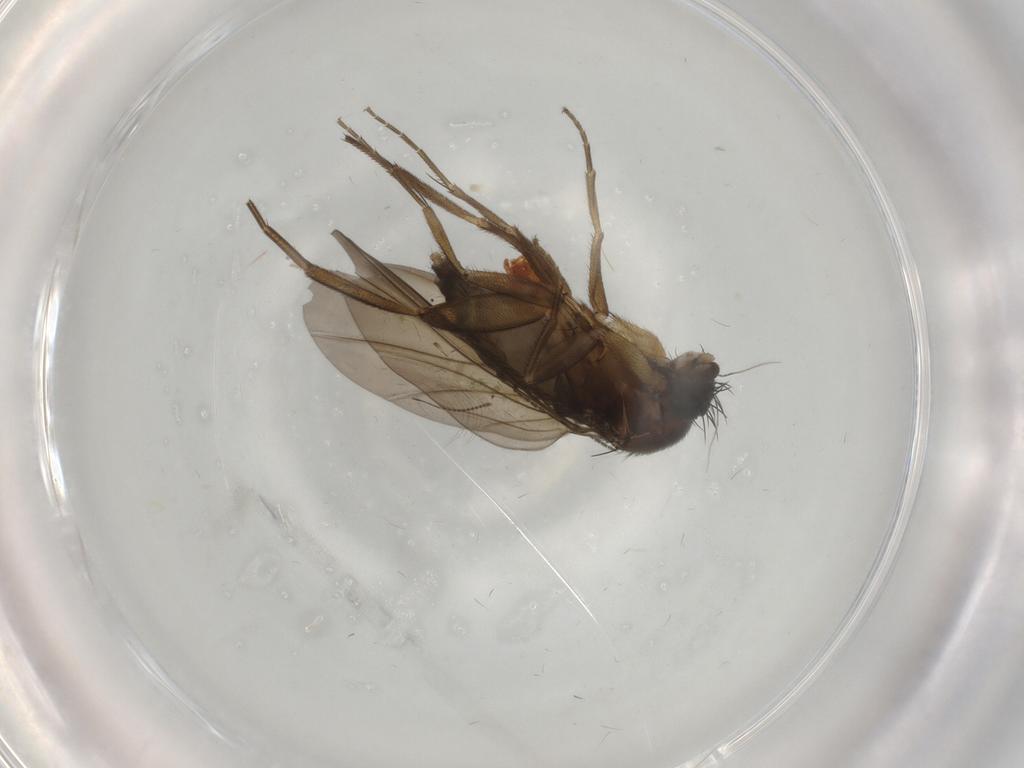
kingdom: Animalia
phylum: Arthropoda
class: Insecta
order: Diptera
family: Phoridae
